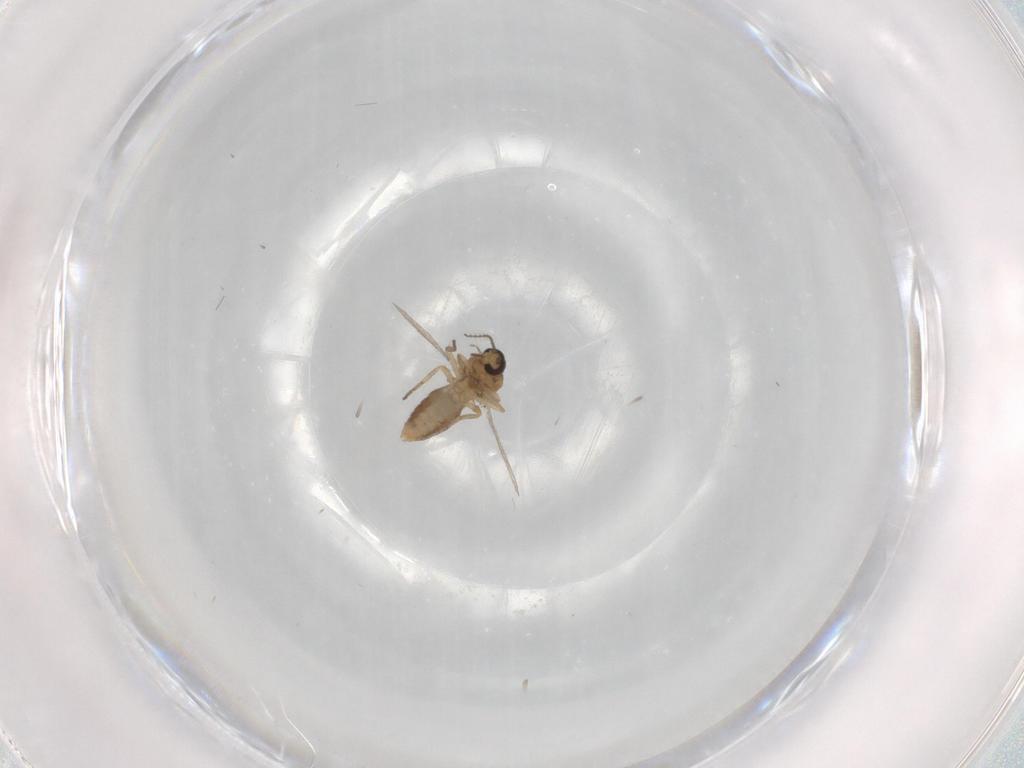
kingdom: Animalia
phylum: Arthropoda
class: Insecta
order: Diptera
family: Ceratopogonidae
